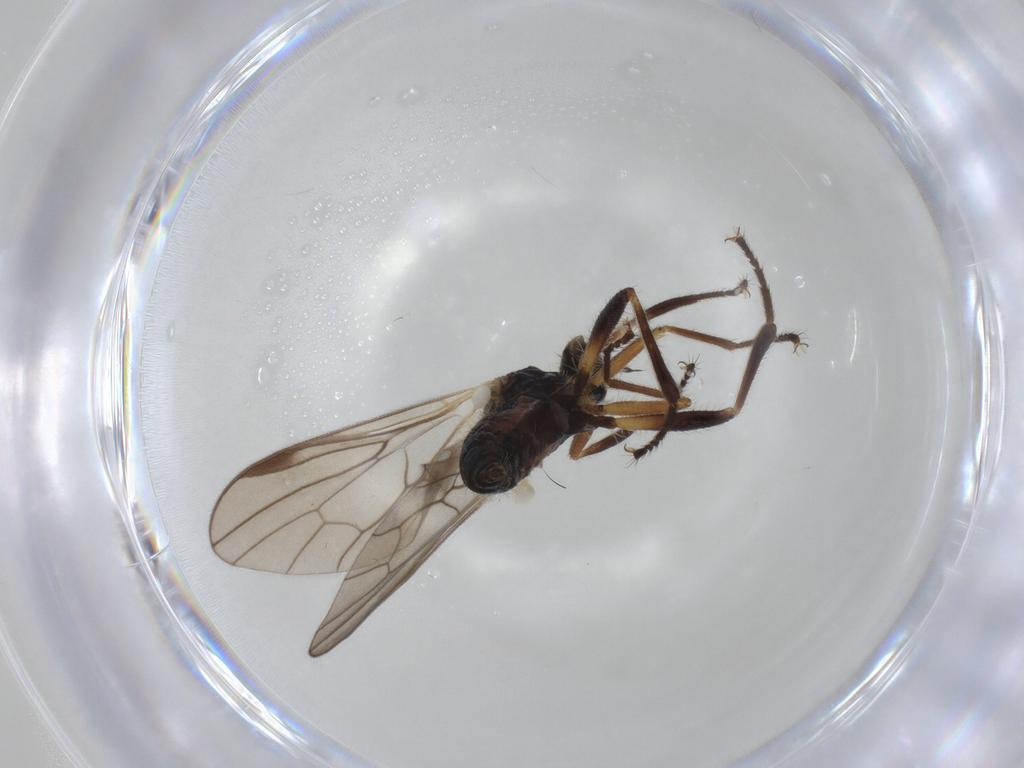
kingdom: Animalia
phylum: Arthropoda
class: Insecta
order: Diptera
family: Hybotidae
